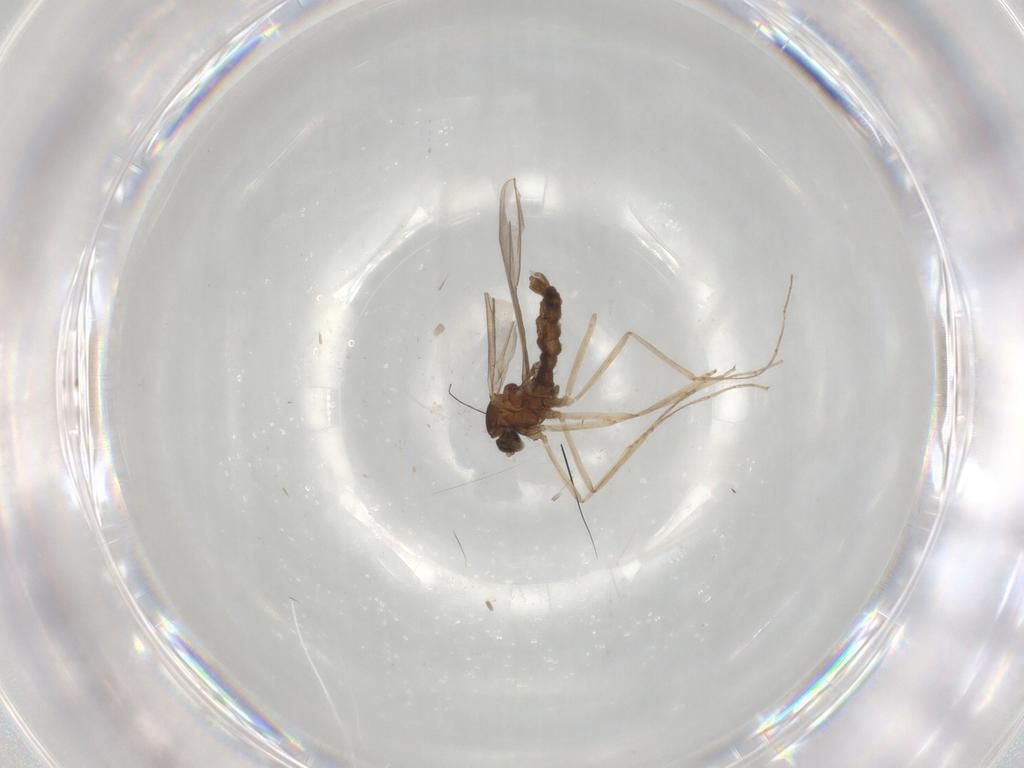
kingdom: Animalia
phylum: Arthropoda
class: Insecta
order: Diptera
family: Cecidomyiidae
